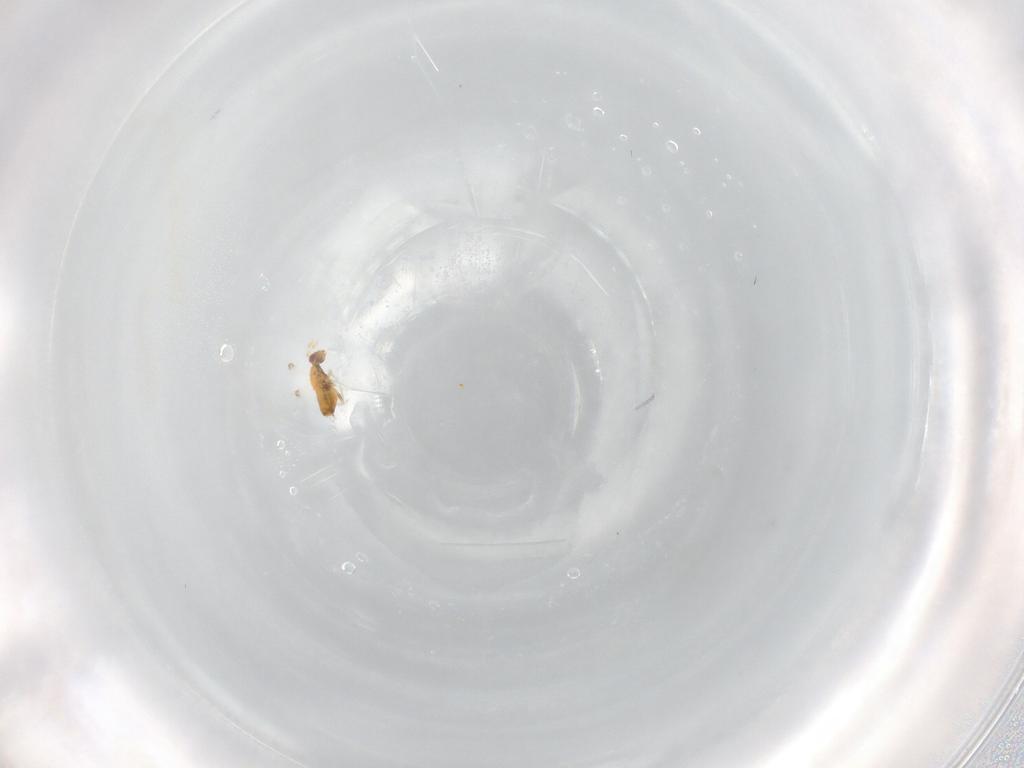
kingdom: Animalia
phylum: Arthropoda
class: Insecta
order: Hymenoptera
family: Trichogrammatidae
